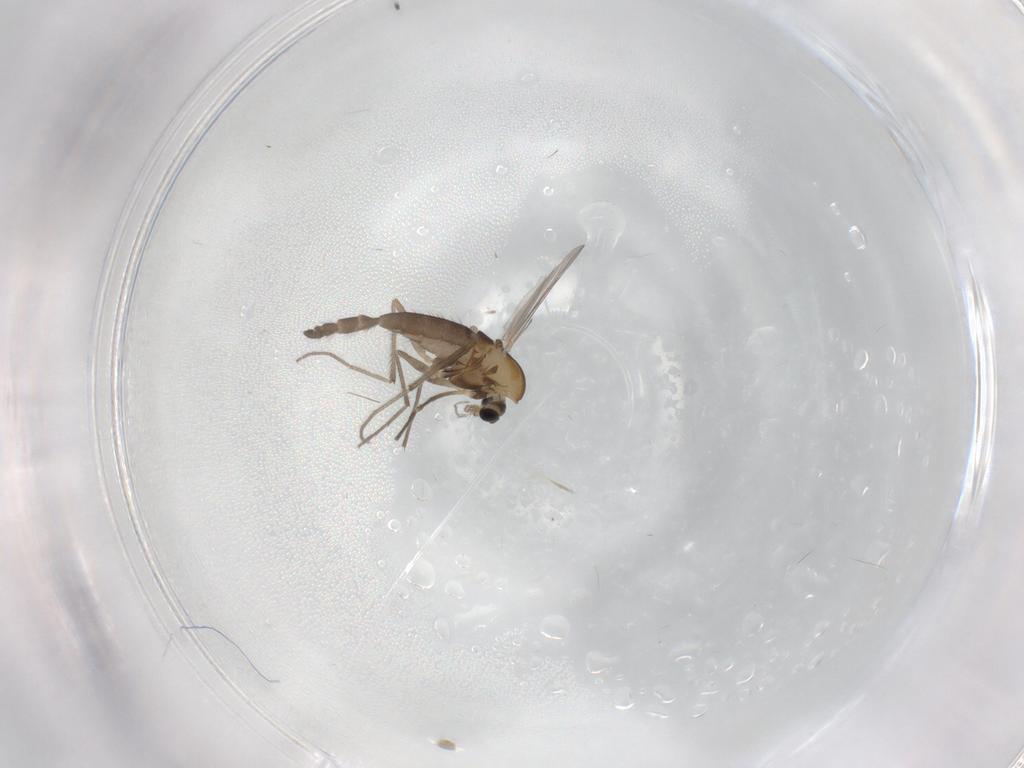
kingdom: Animalia
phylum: Arthropoda
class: Insecta
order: Diptera
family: Chironomidae
